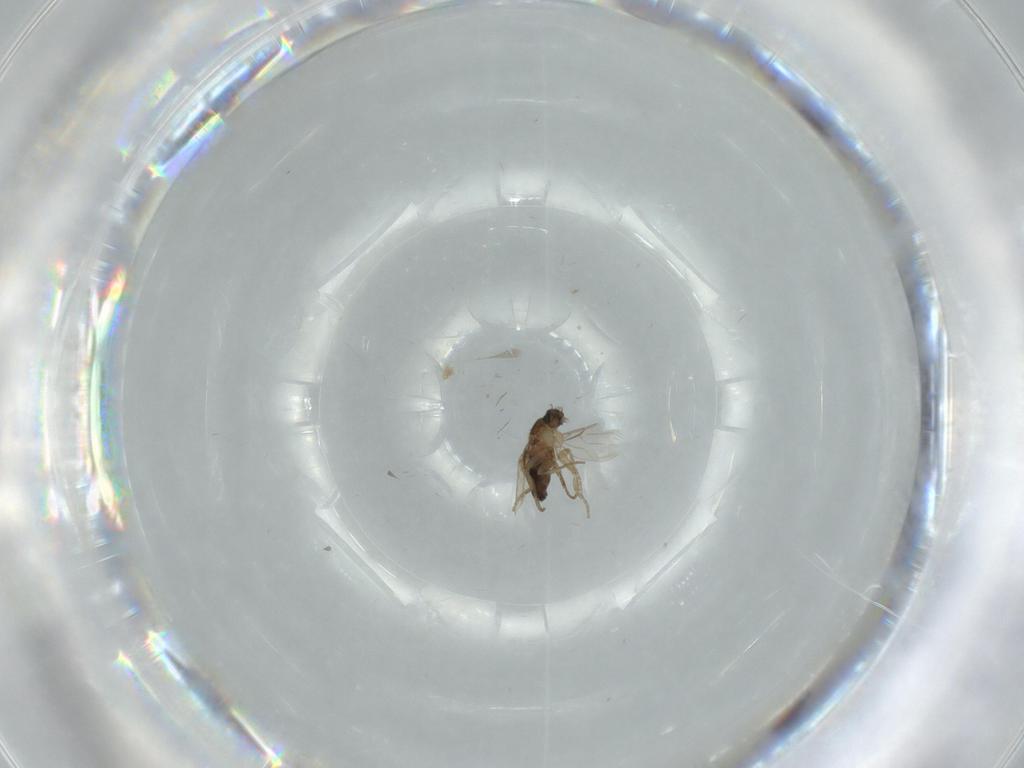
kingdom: Animalia
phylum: Arthropoda
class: Insecta
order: Diptera
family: Phoridae
